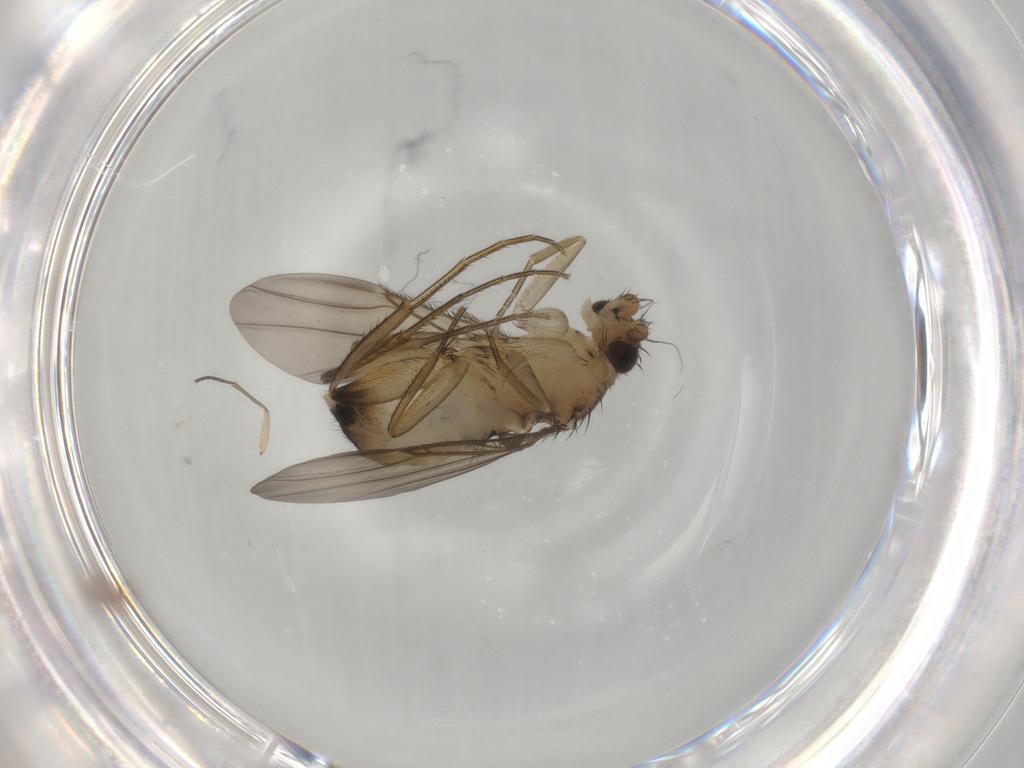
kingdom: Animalia
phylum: Arthropoda
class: Insecta
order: Diptera
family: Phoridae
